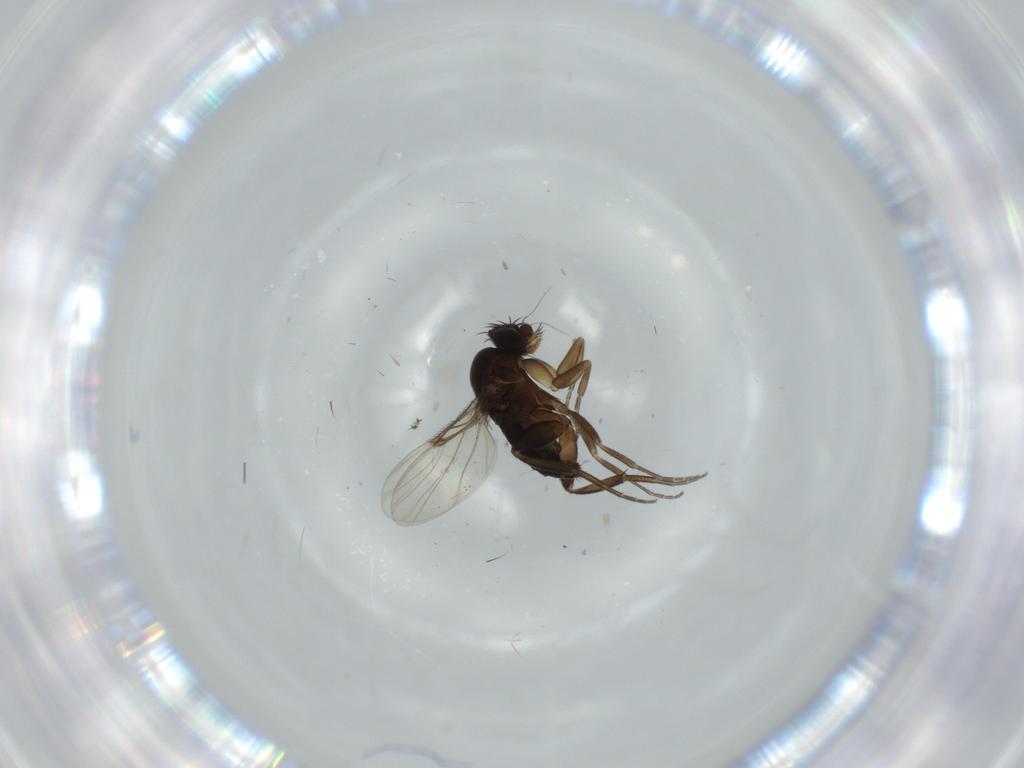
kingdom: Animalia
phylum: Arthropoda
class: Insecta
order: Diptera
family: Phoridae
